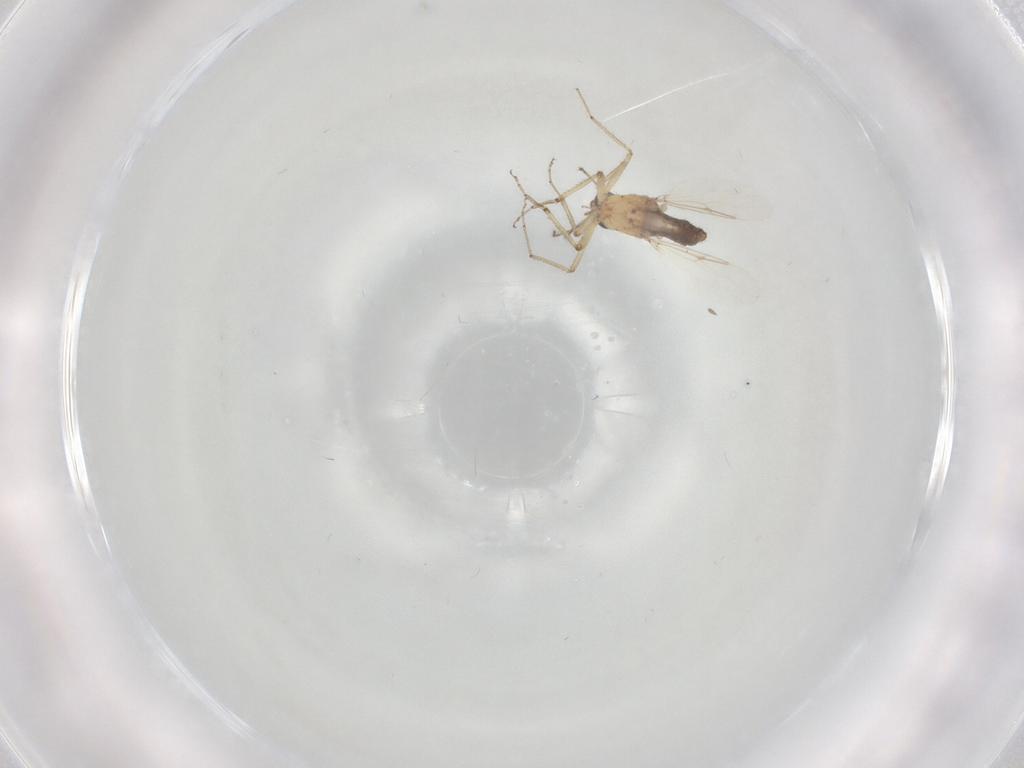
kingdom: Animalia
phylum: Arthropoda
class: Insecta
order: Diptera
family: Ceratopogonidae
